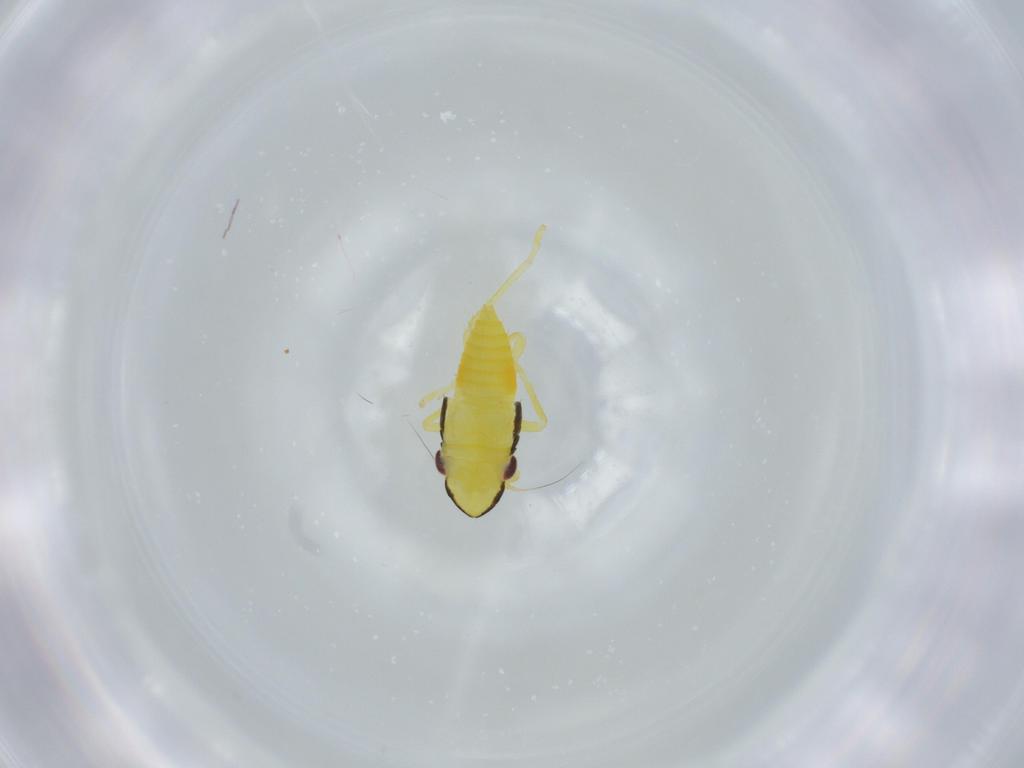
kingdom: Animalia
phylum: Arthropoda
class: Insecta
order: Hemiptera
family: Cicadellidae
